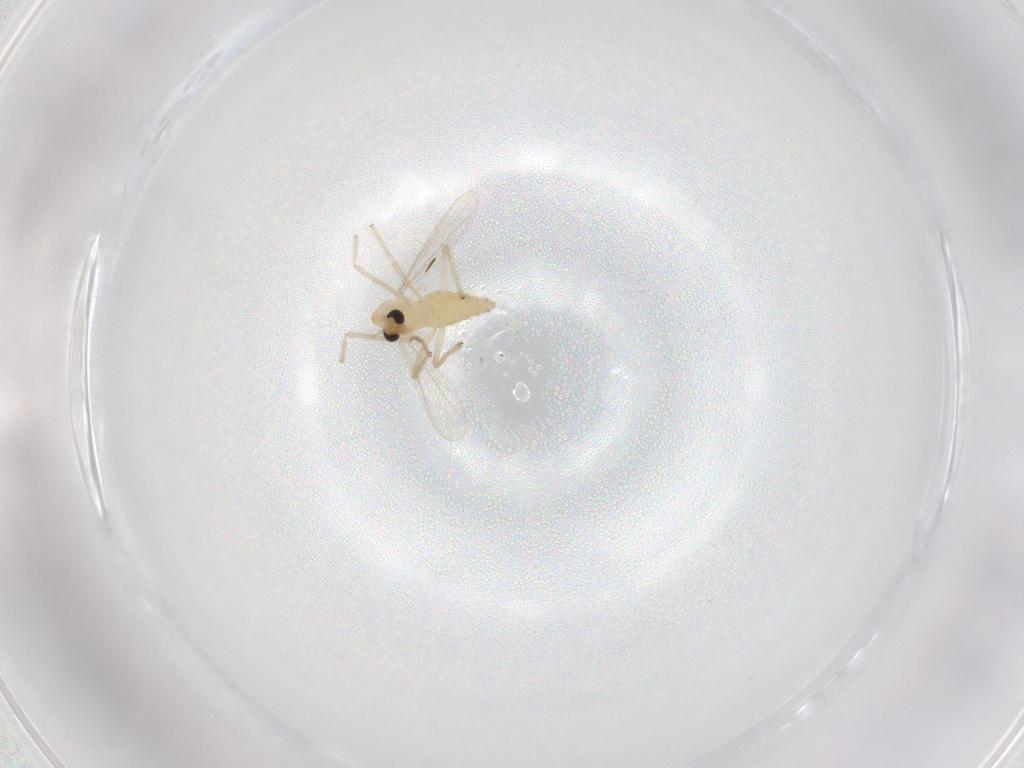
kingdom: Animalia
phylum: Arthropoda
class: Insecta
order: Diptera
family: Chironomidae
